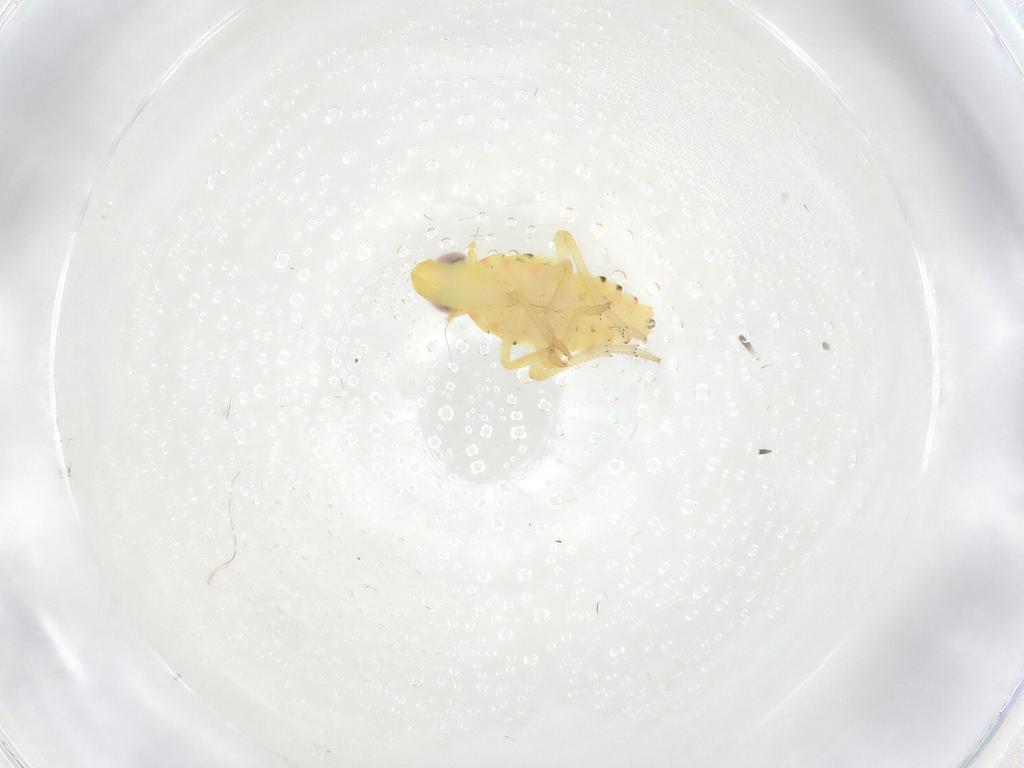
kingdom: Animalia
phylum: Arthropoda
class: Insecta
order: Hemiptera
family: Tropiduchidae
